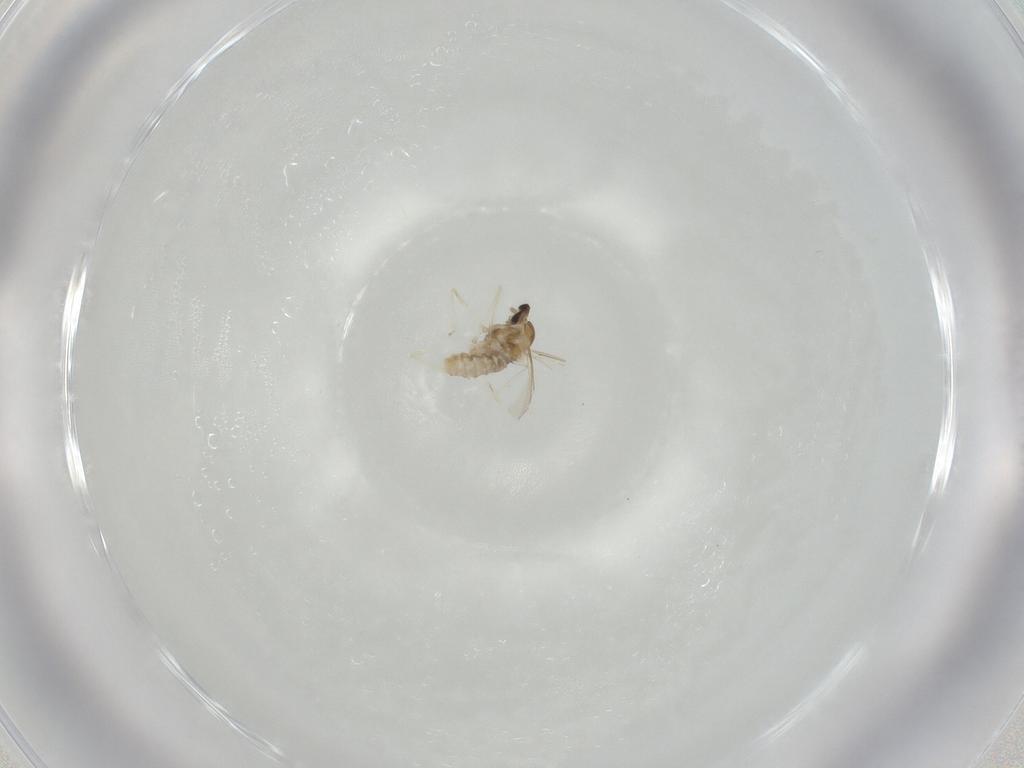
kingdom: Animalia
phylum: Arthropoda
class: Insecta
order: Diptera
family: Cecidomyiidae
